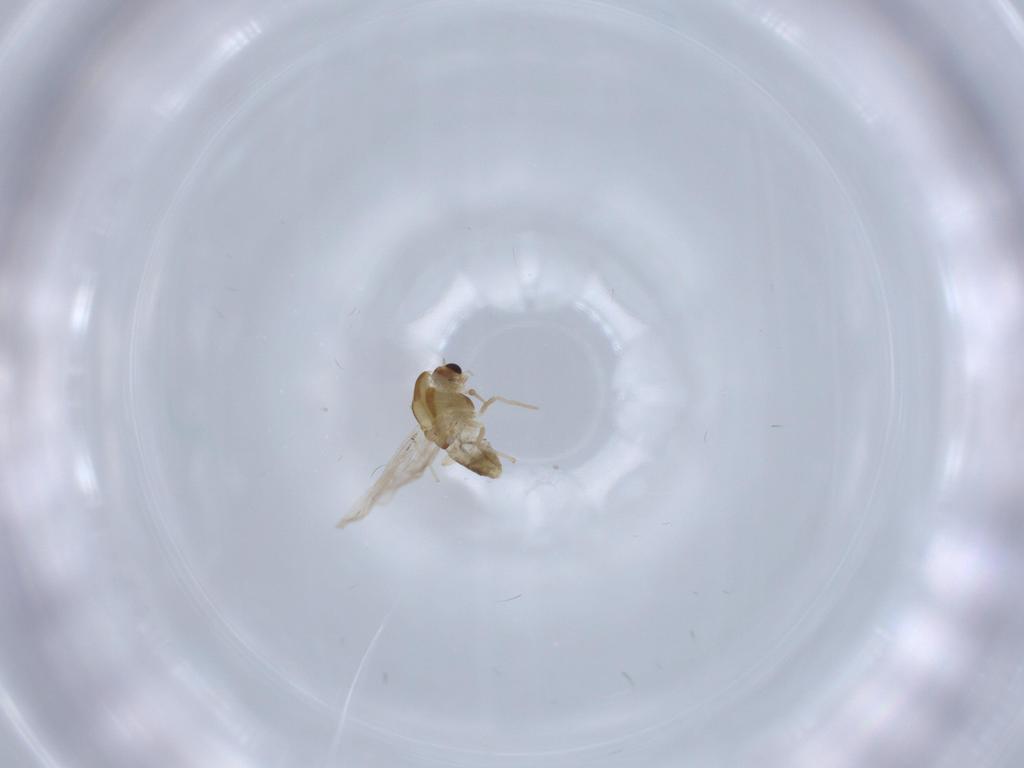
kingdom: Animalia
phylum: Arthropoda
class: Insecta
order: Diptera
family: Chironomidae
